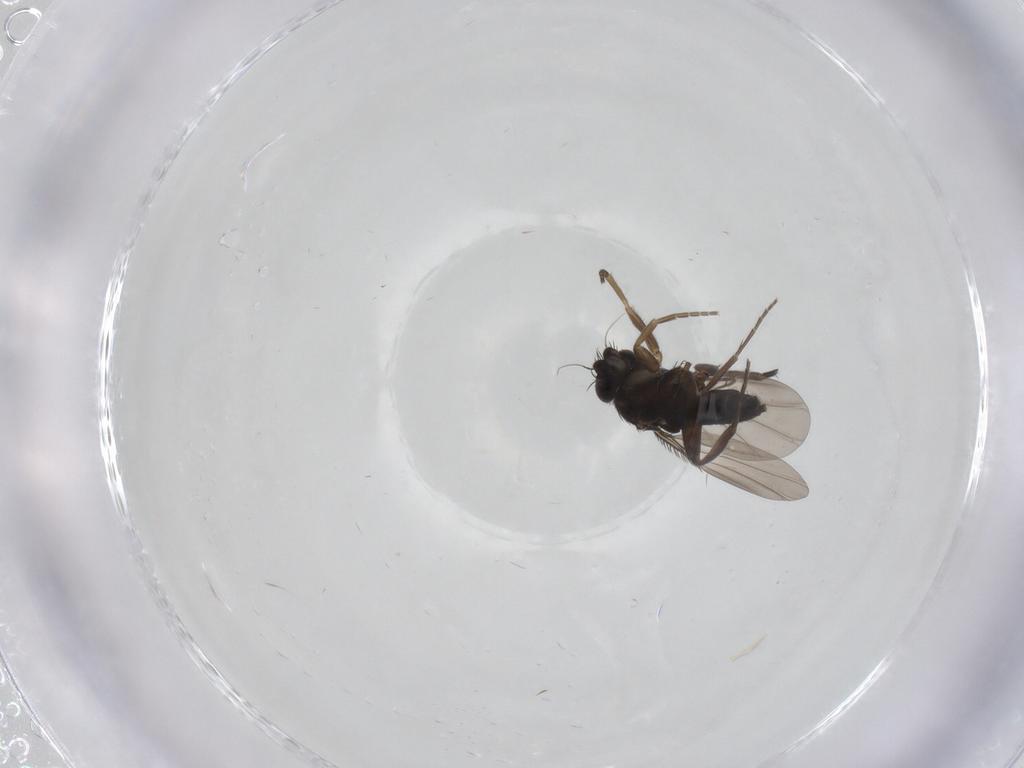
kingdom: Animalia
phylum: Arthropoda
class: Insecta
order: Diptera
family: Phoridae
